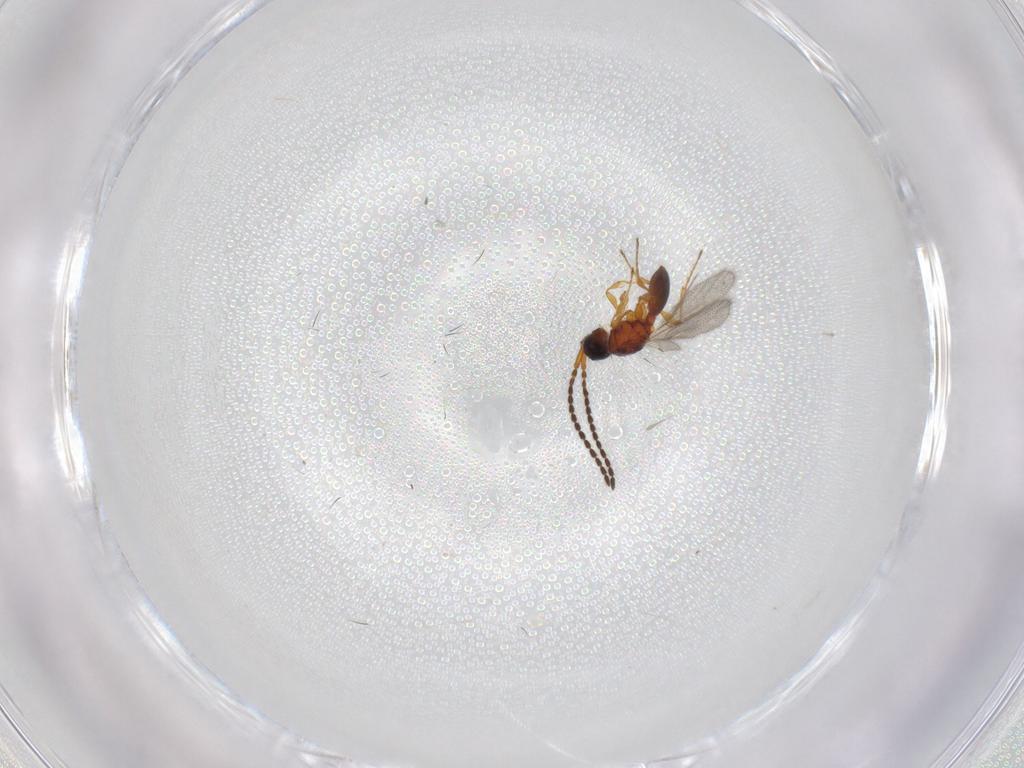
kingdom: Animalia
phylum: Arthropoda
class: Insecta
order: Hymenoptera
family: Diapriidae
